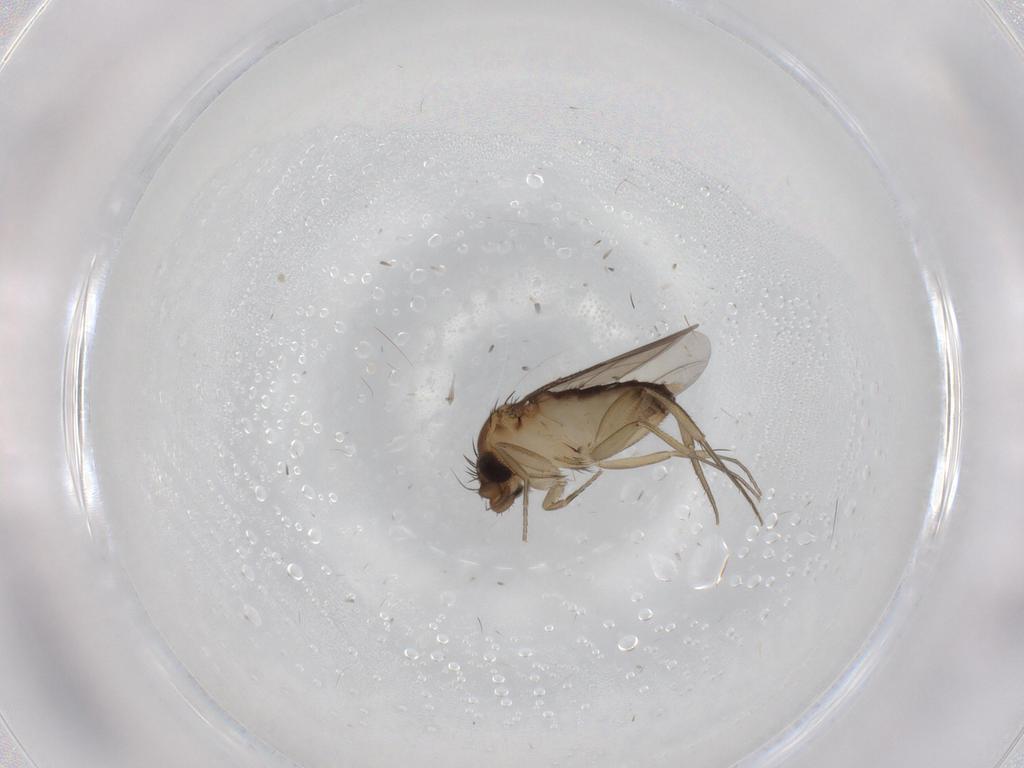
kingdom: Animalia
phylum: Arthropoda
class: Insecta
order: Diptera
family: Phoridae
